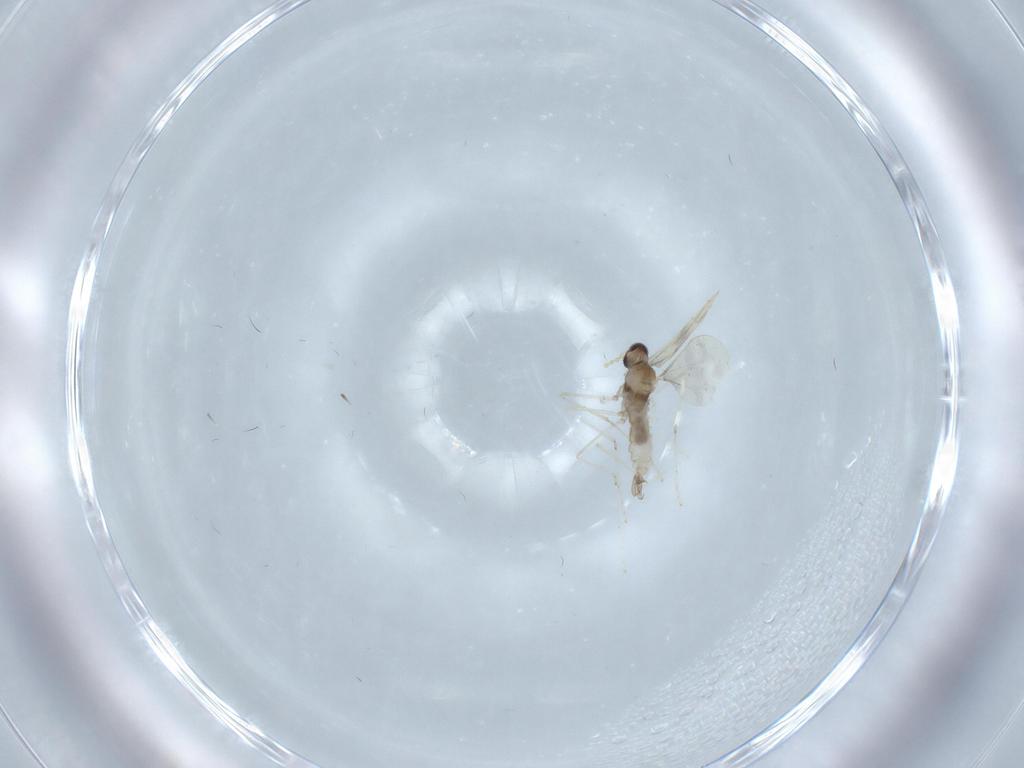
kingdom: Animalia
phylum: Arthropoda
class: Insecta
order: Diptera
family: Cecidomyiidae
